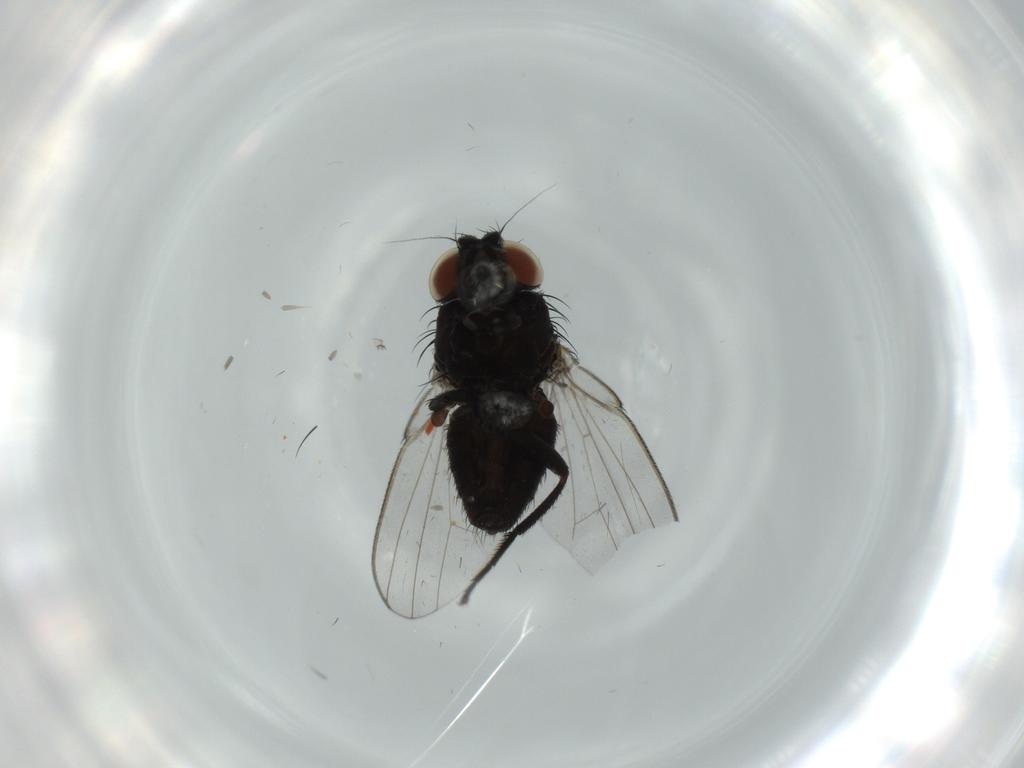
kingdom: Animalia
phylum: Arthropoda
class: Insecta
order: Diptera
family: Milichiidae
